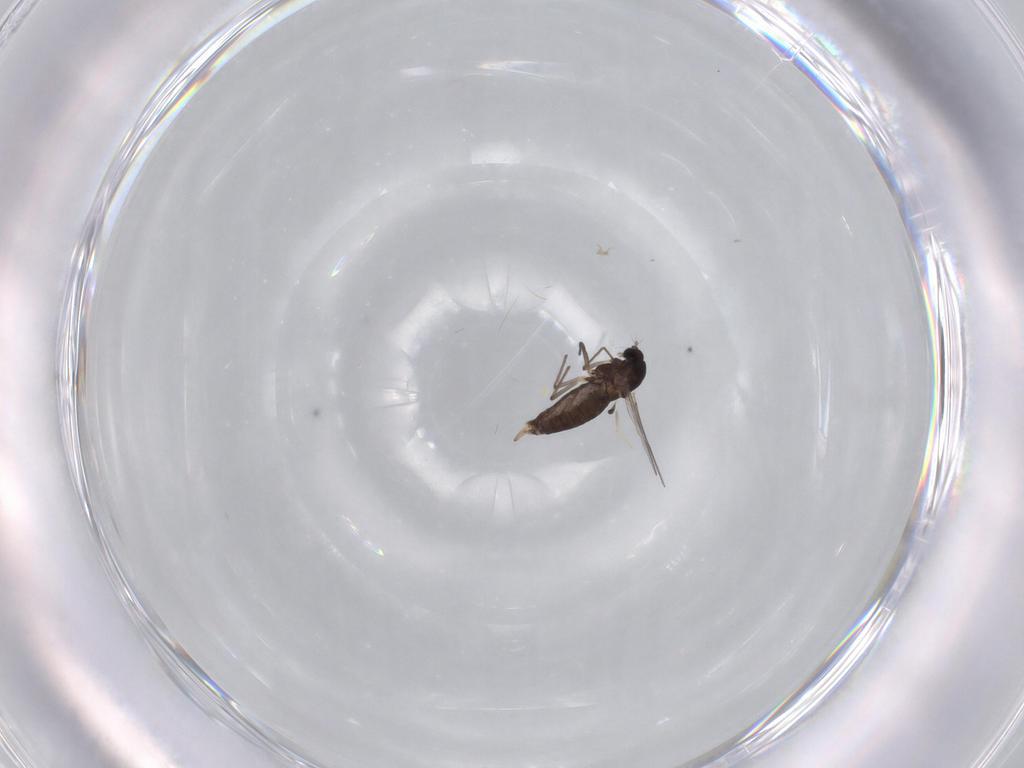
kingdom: Animalia
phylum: Arthropoda
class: Insecta
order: Diptera
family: Chironomidae
